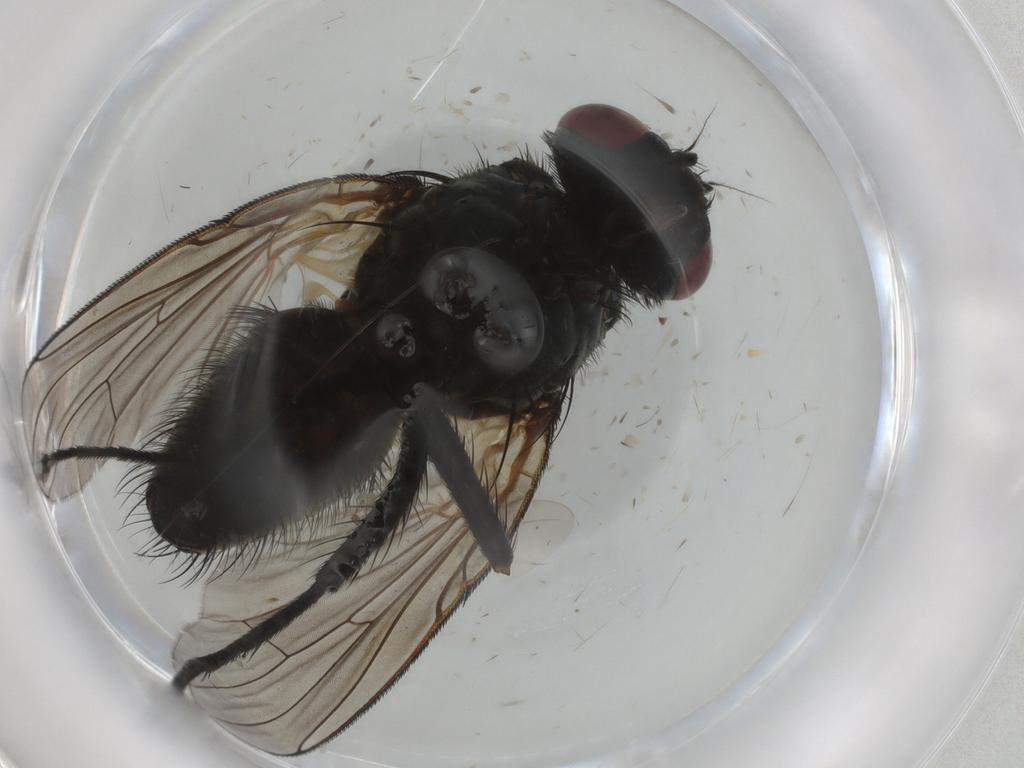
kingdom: Animalia
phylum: Arthropoda
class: Insecta
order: Diptera
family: Muscidae
